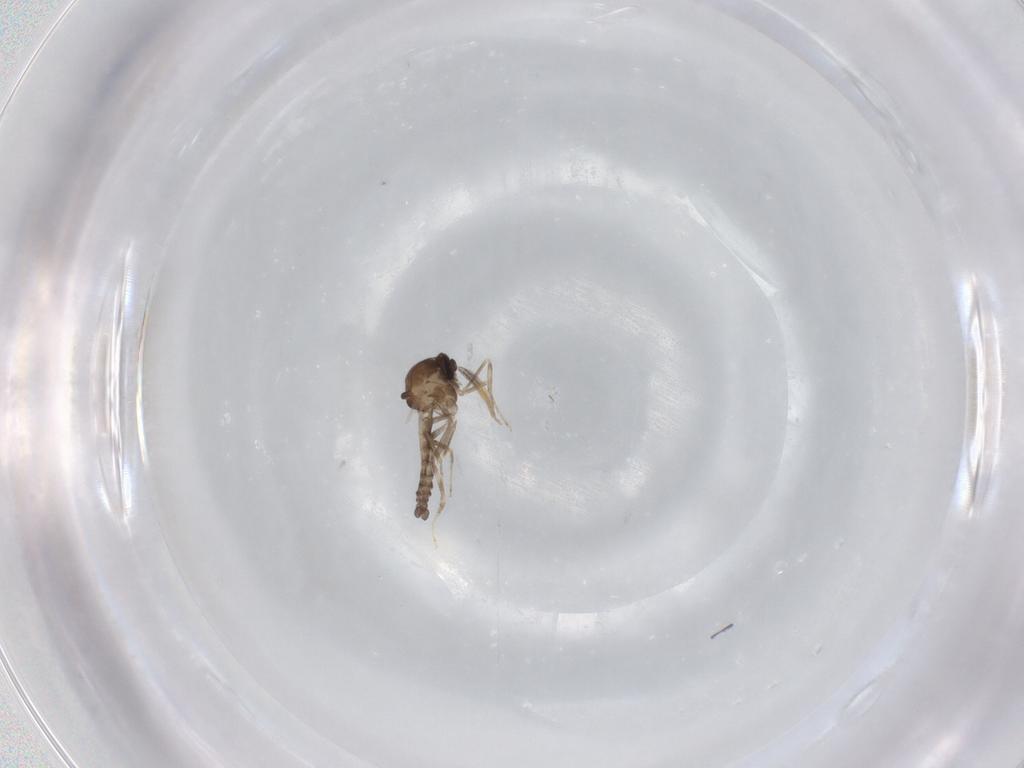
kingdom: Animalia
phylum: Arthropoda
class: Insecta
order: Diptera
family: Ceratopogonidae
